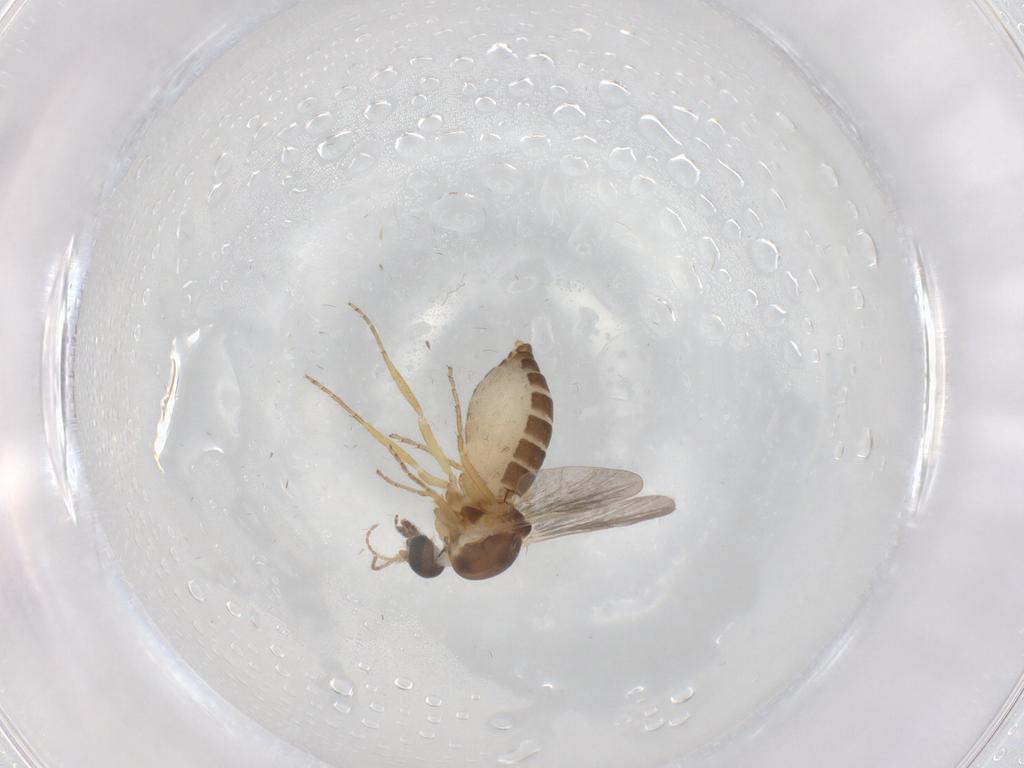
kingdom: Animalia
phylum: Arthropoda
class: Insecta
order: Diptera
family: Ceratopogonidae
